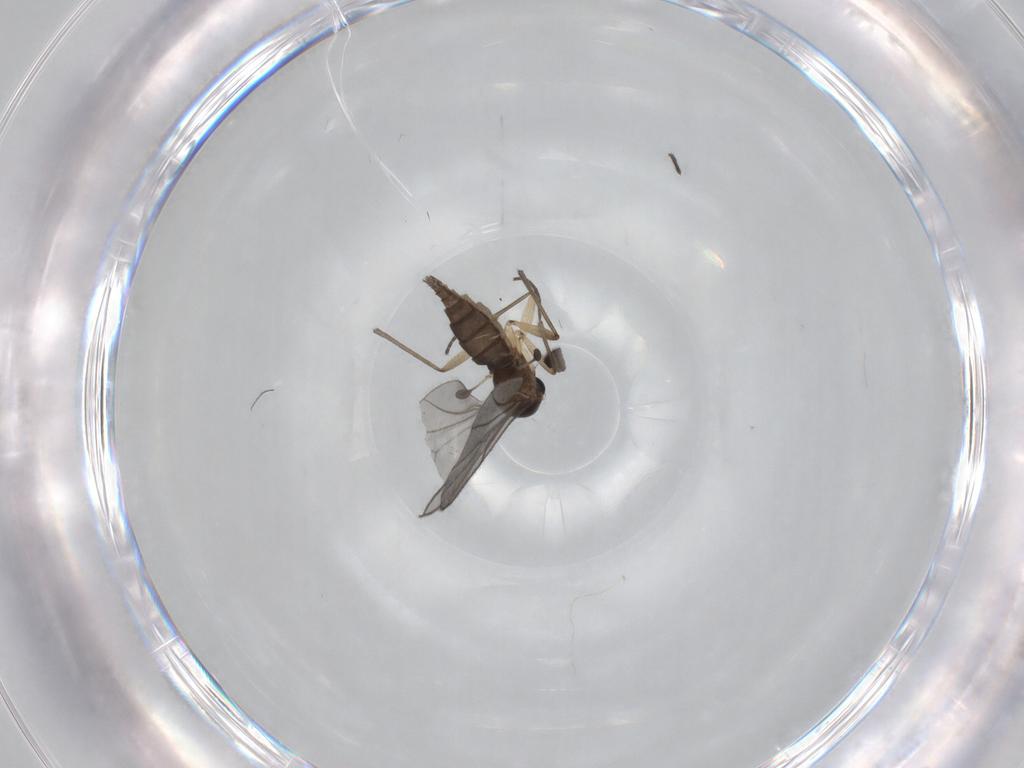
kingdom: Animalia
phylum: Arthropoda
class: Insecta
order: Diptera
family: Sciaridae
